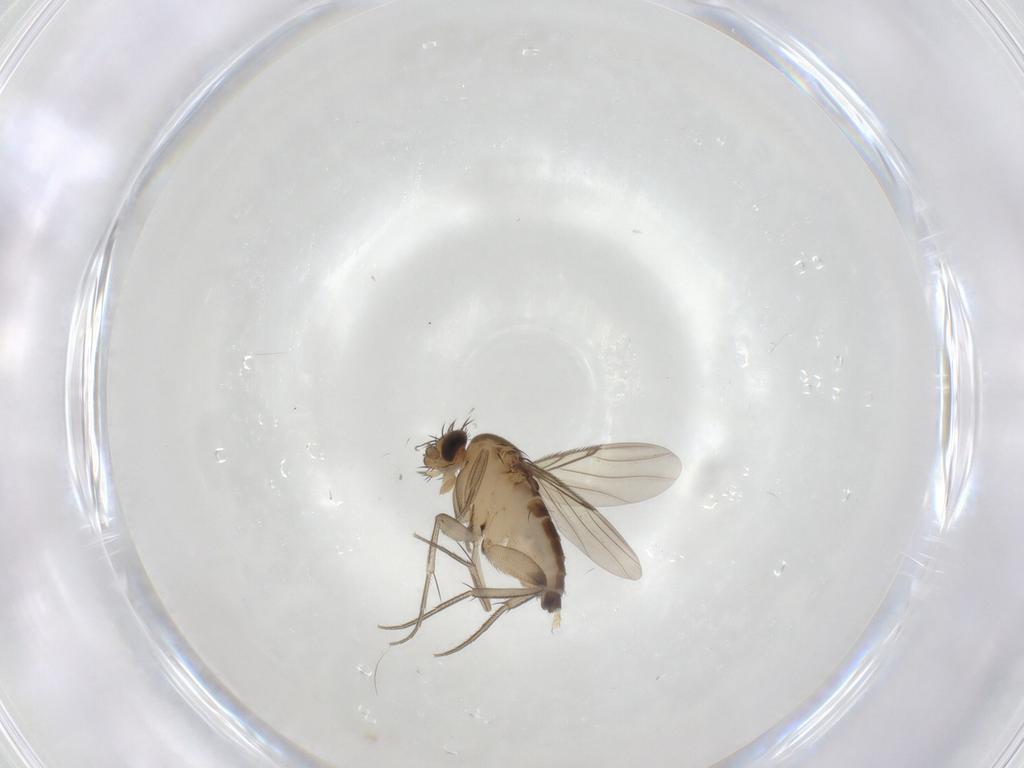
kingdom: Animalia
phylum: Arthropoda
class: Insecta
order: Diptera
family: Phoridae
